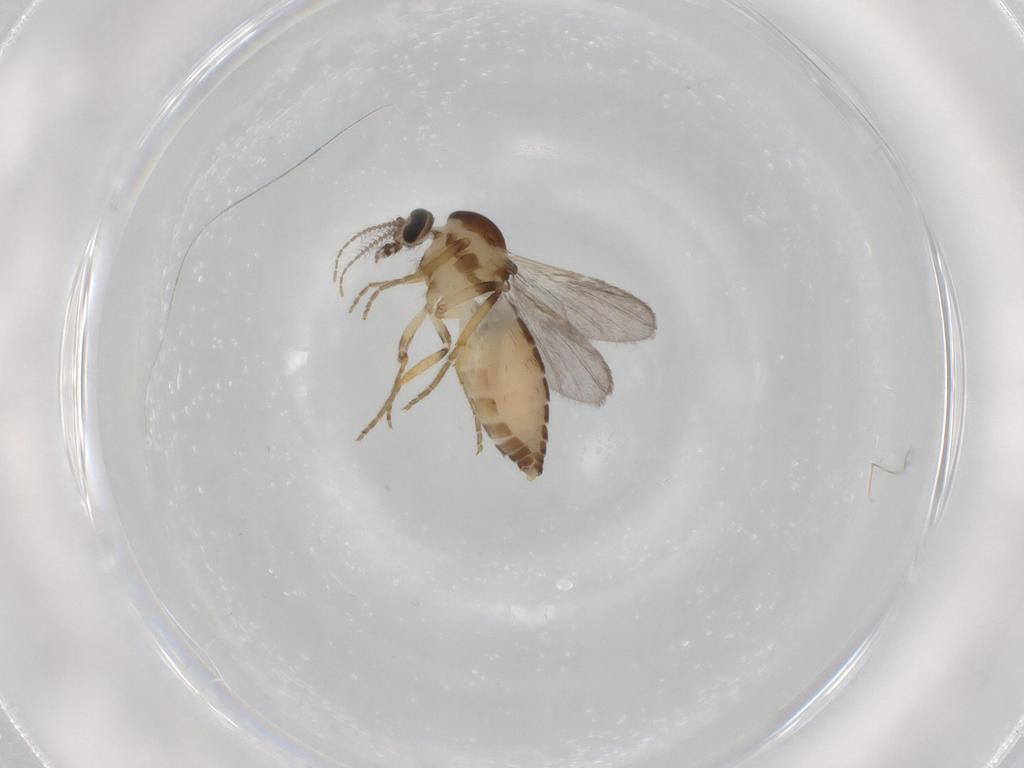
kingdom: Animalia
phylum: Arthropoda
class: Insecta
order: Diptera
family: Ceratopogonidae
